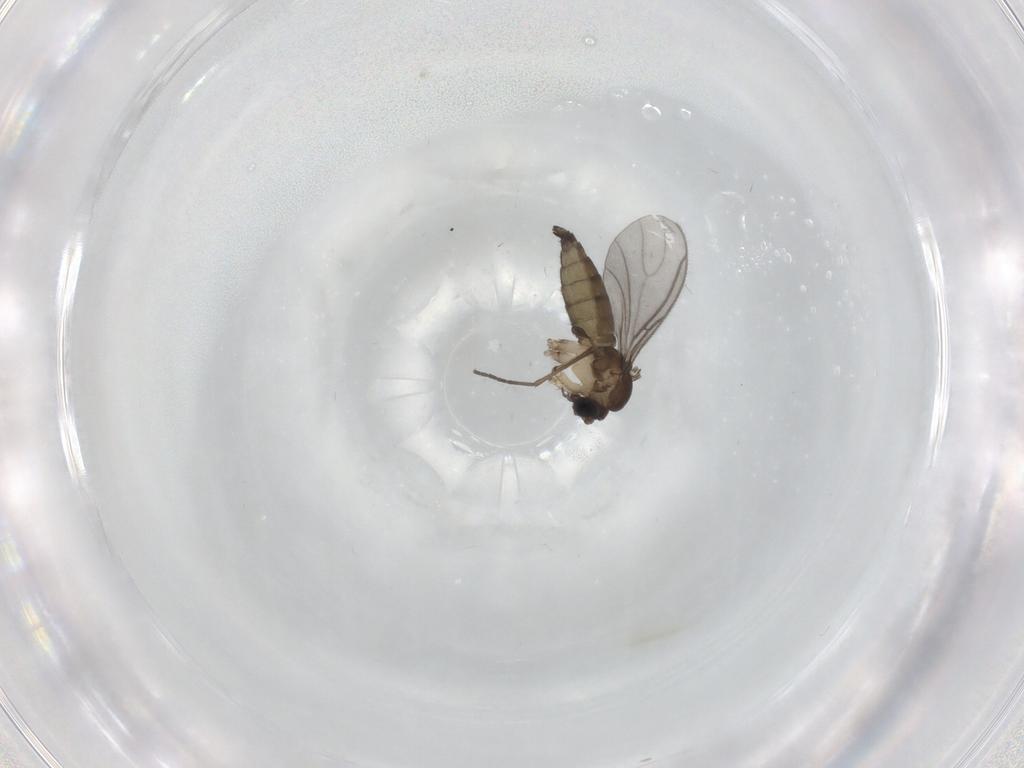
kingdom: Animalia
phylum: Arthropoda
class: Insecta
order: Diptera
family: Sciaridae
